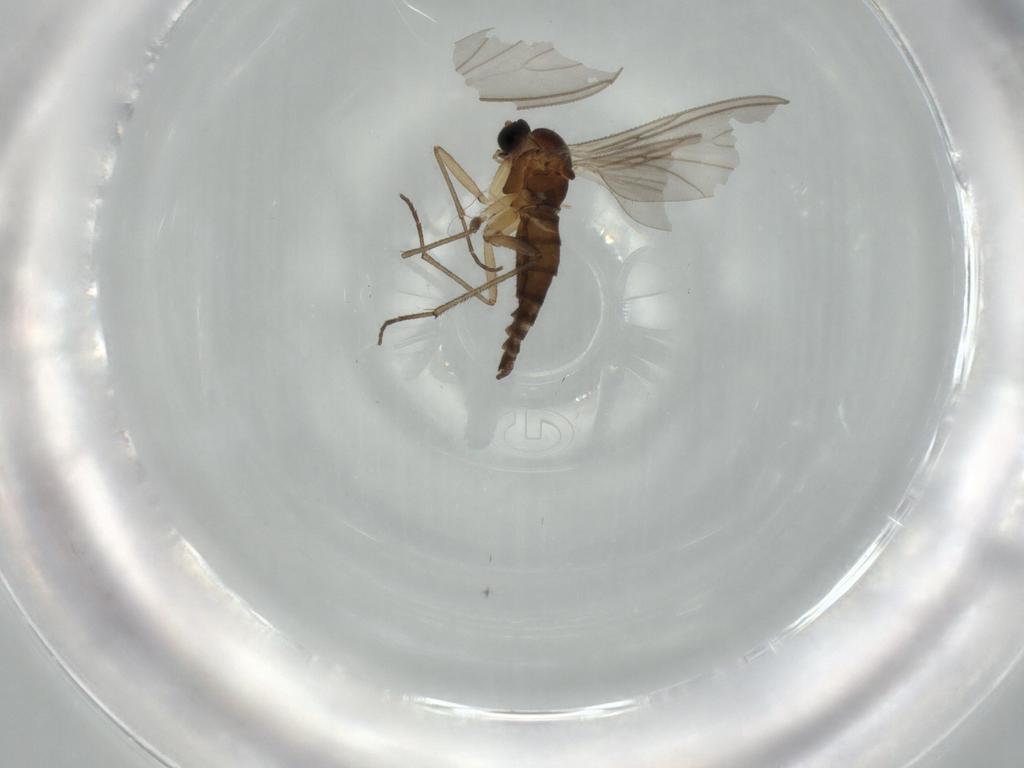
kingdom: Animalia
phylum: Arthropoda
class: Insecta
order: Diptera
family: Sciaridae
